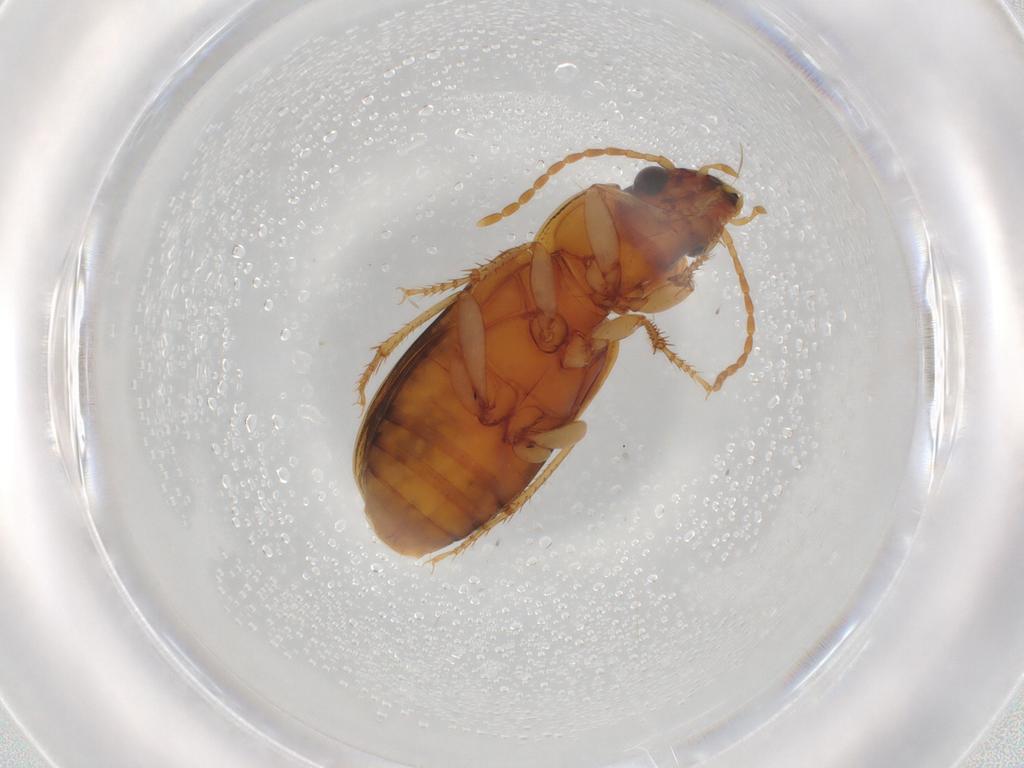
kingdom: Animalia
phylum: Arthropoda
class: Insecta
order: Coleoptera
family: Carabidae
